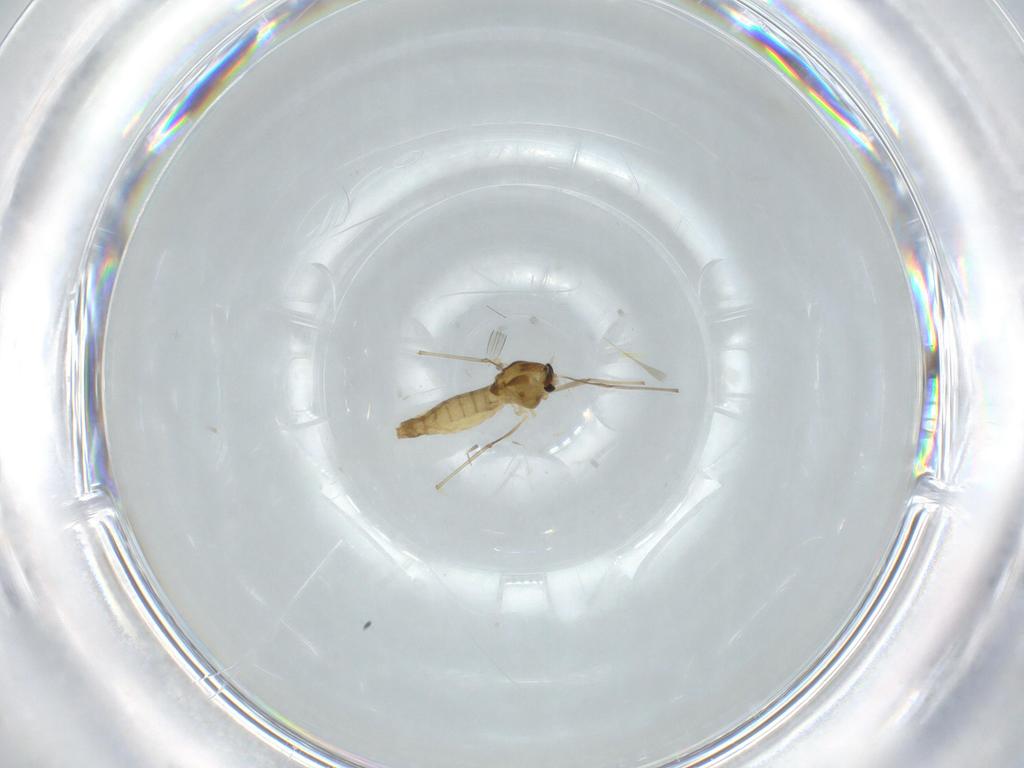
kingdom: Animalia
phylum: Arthropoda
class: Insecta
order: Diptera
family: Chironomidae
